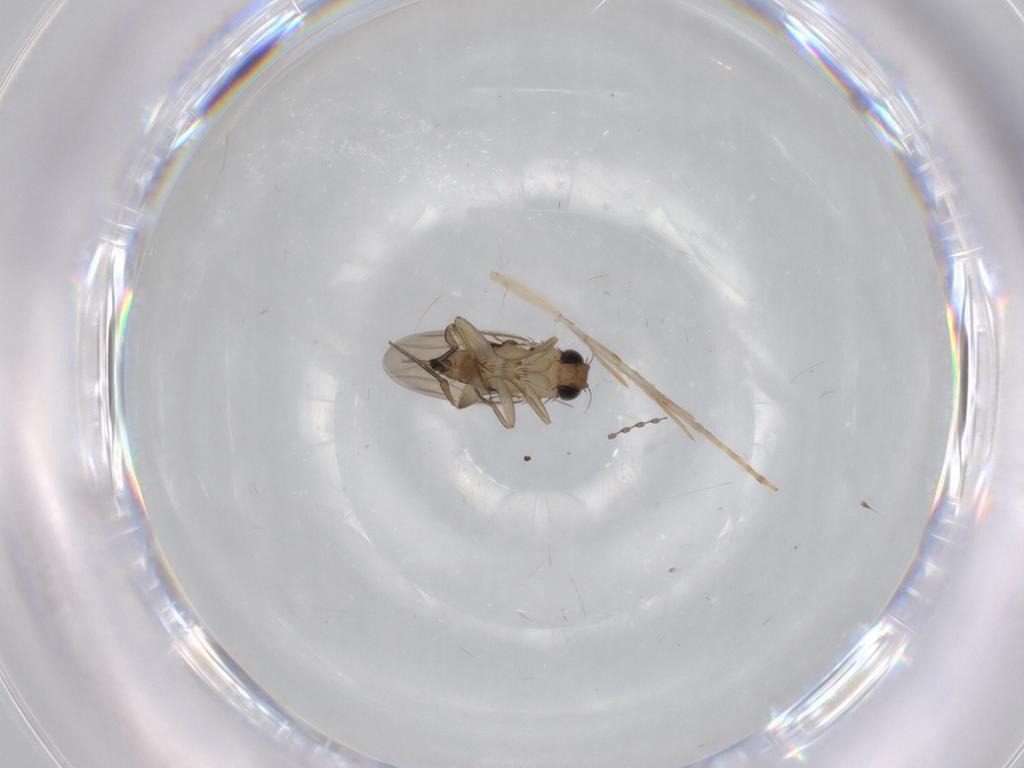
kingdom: Animalia
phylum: Arthropoda
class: Insecta
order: Diptera
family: Phoridae
